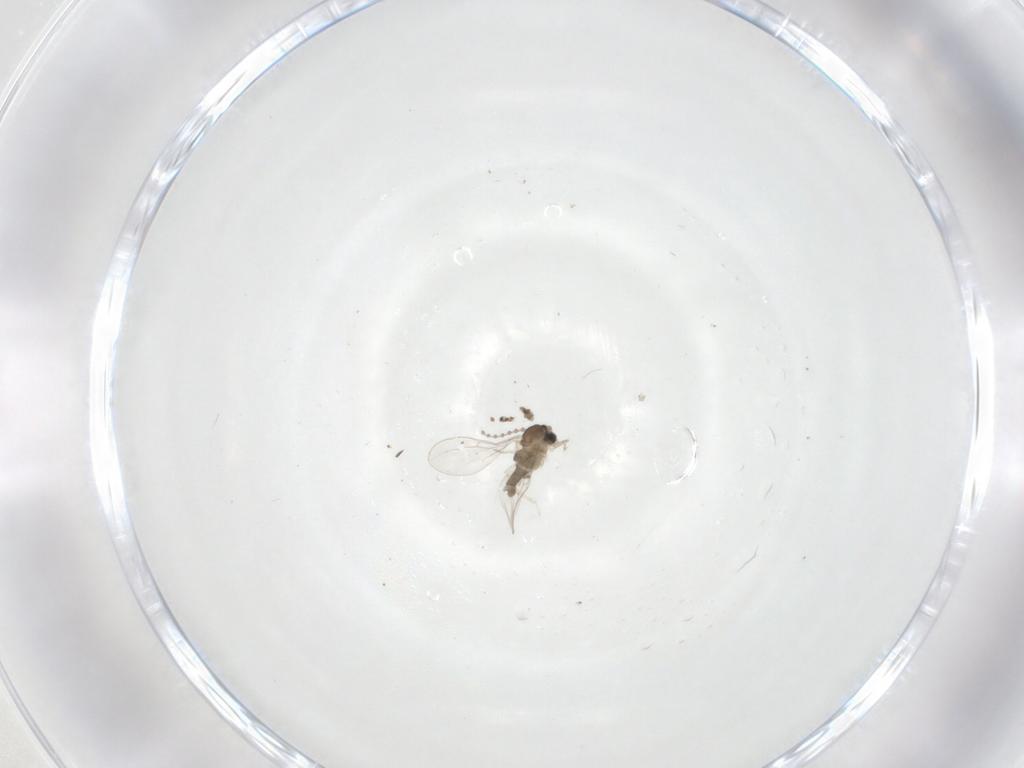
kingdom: Animalia
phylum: Arthropoda
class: Insecta
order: Diptera
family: Cecidomyiidae
